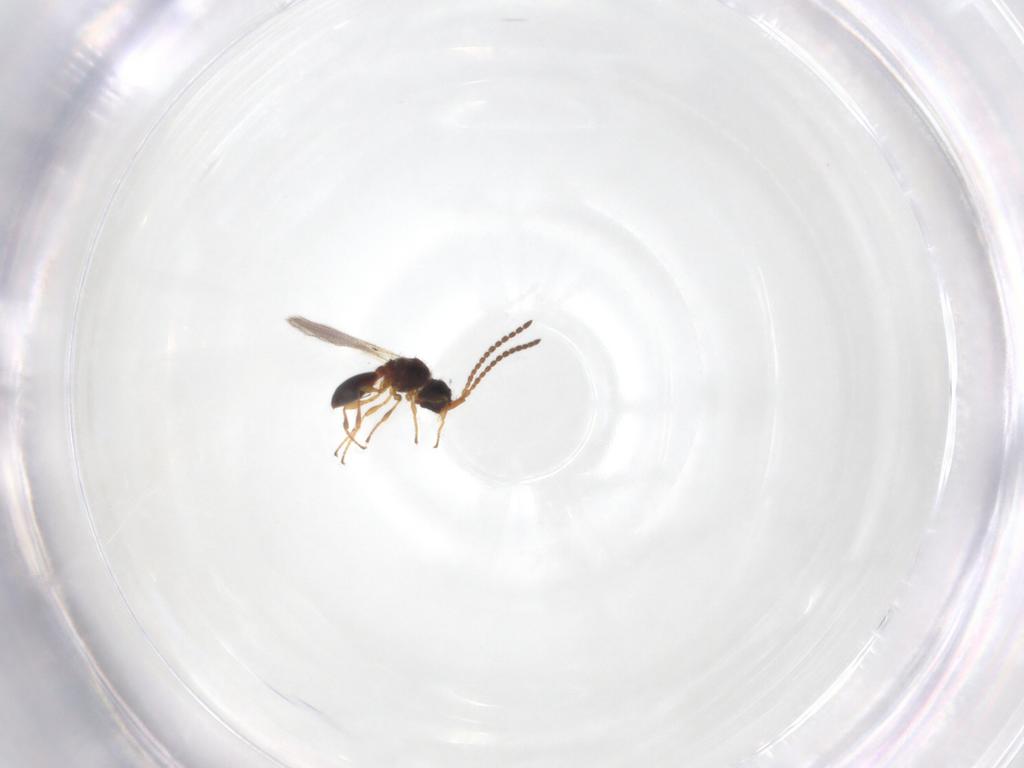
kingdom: Animalia
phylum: Arthropoda
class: Insecta
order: Hymenoptera
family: Diapriidae
